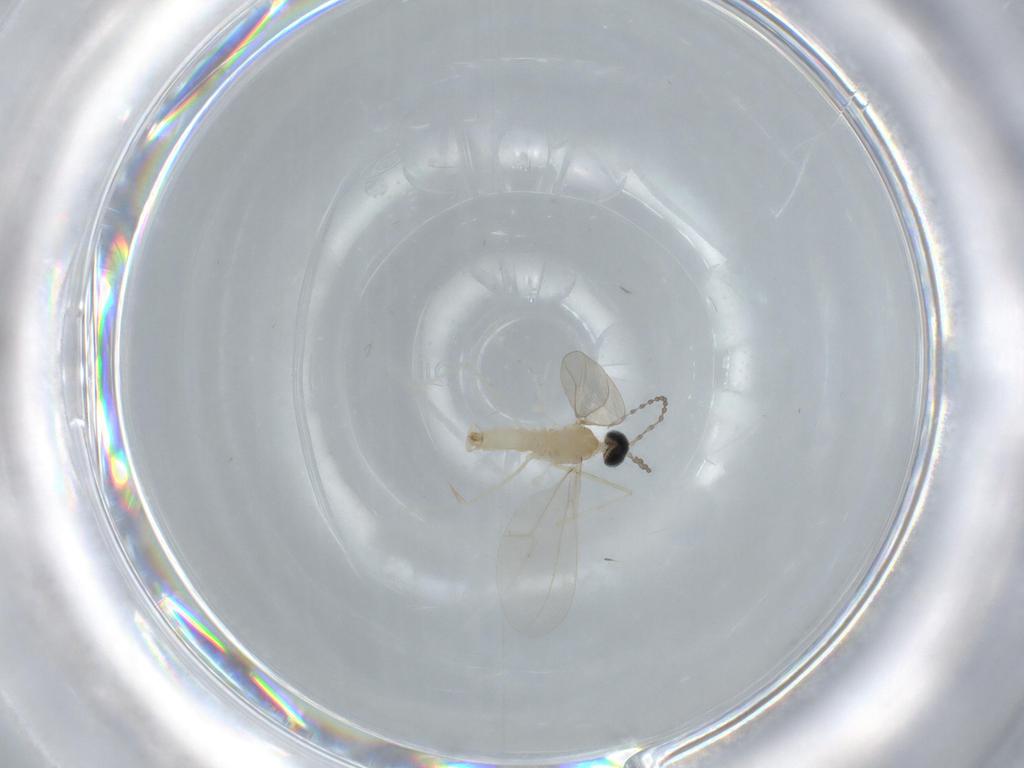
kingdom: Animalia
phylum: Arthropoda
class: Insecta
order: Diptera
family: Cecidomyiidae
